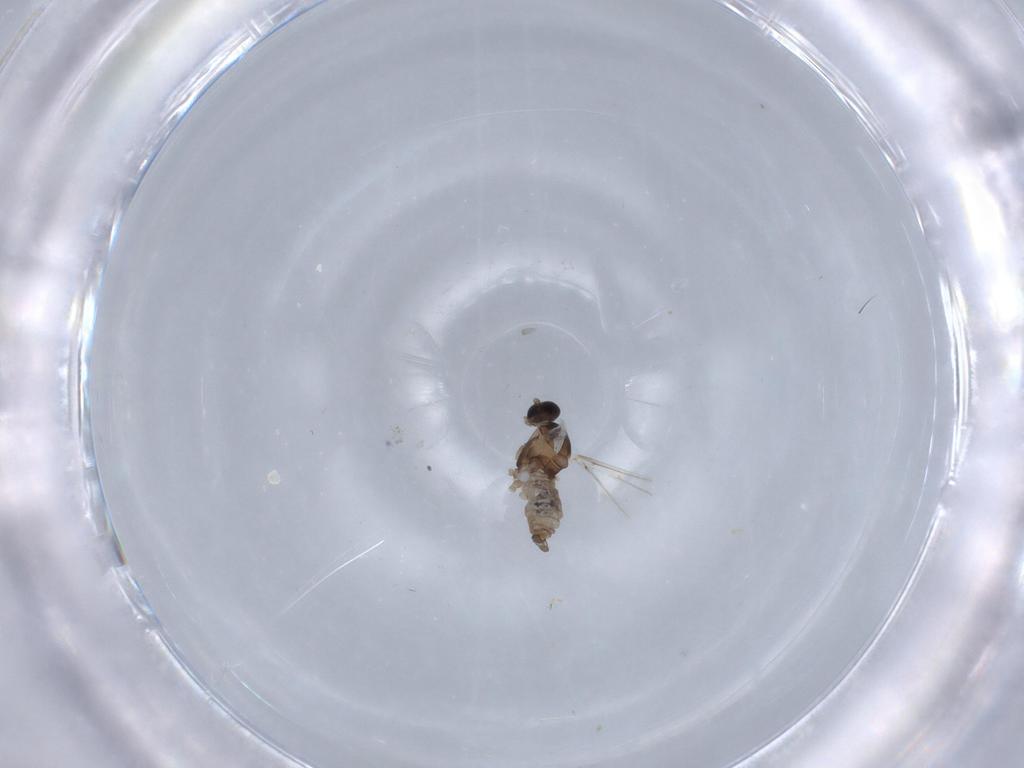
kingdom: Animalia
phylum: Arthropoda
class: Insecta
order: Diptera
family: Cecidomyiidae
